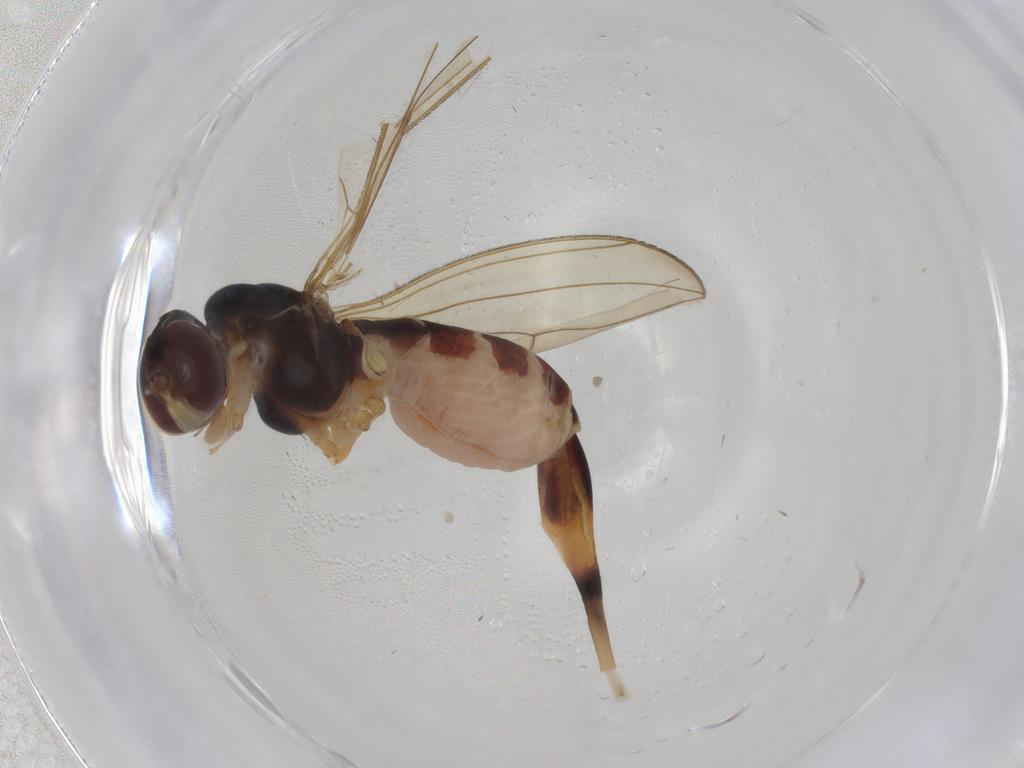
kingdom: Animalia
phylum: Arthropoda
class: Insecta
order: Diptera
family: Micropezidae
